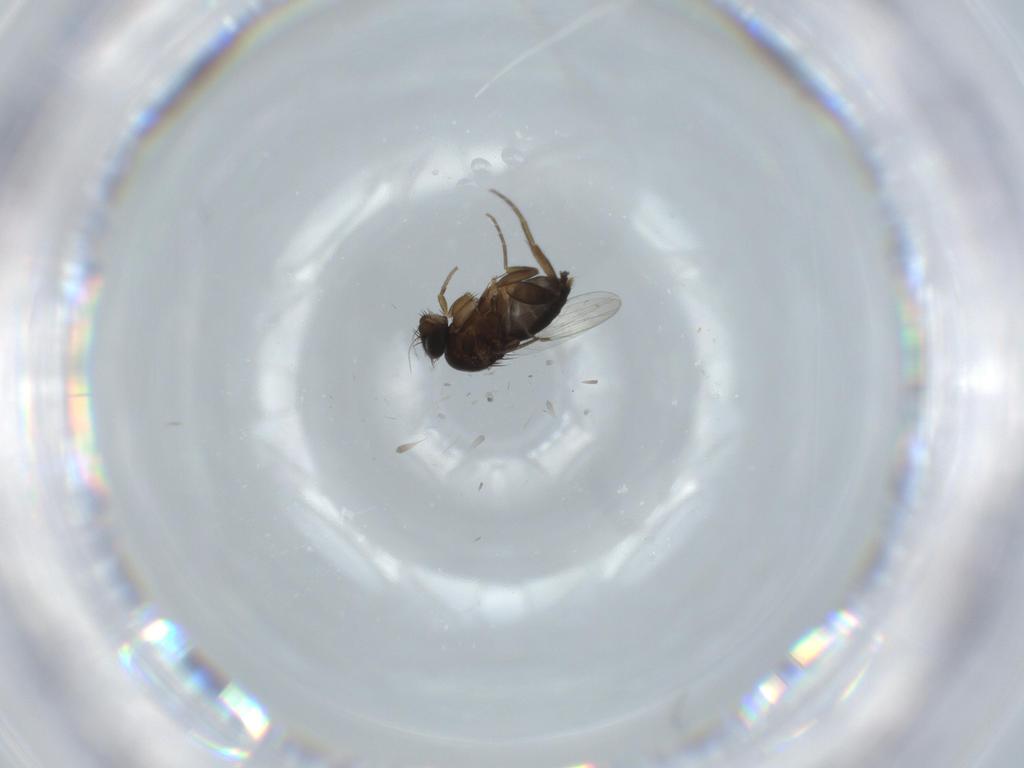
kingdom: Animalia
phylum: Arthropoda
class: Insecta
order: Diptera
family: Phoridae
